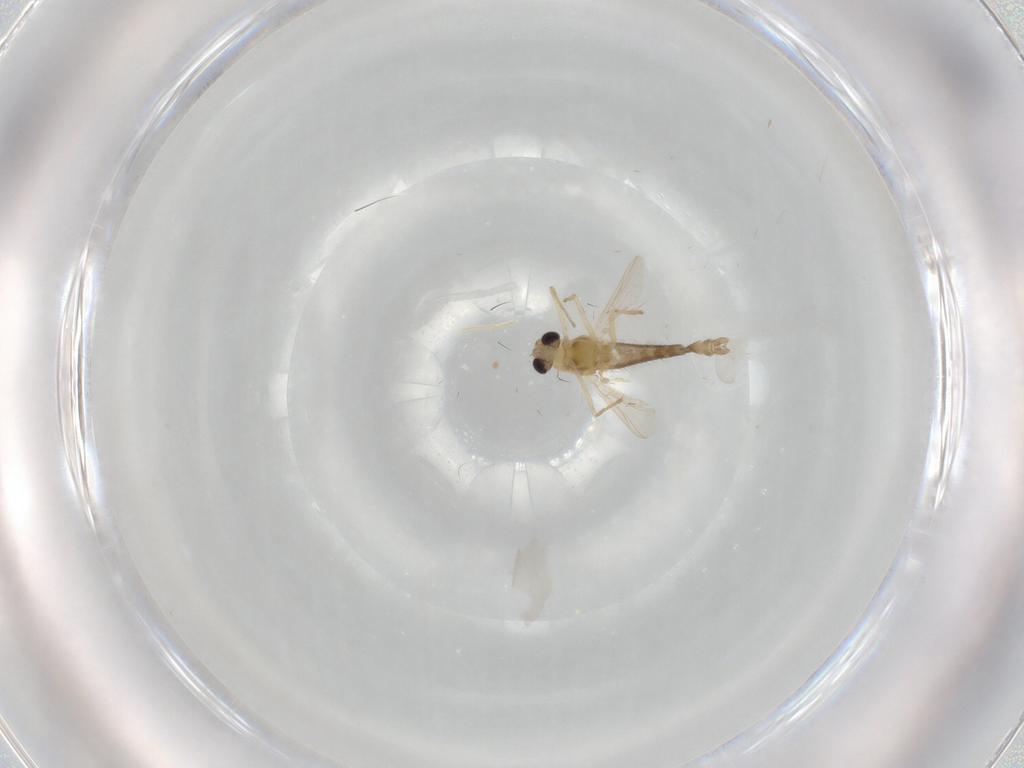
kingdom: Animalia
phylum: Arthropoda
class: Insecta
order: Diptera
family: Chironomidae
